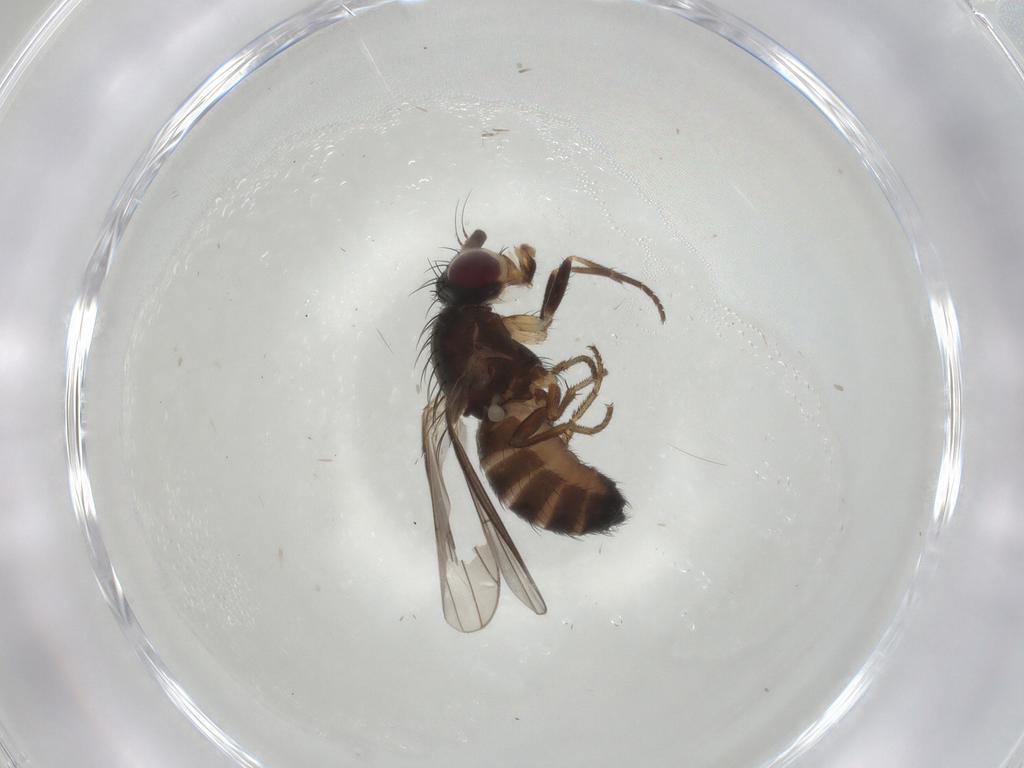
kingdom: Animalia
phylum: Arthropoda
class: Insecta
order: Diptera
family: Heleomyzidae
